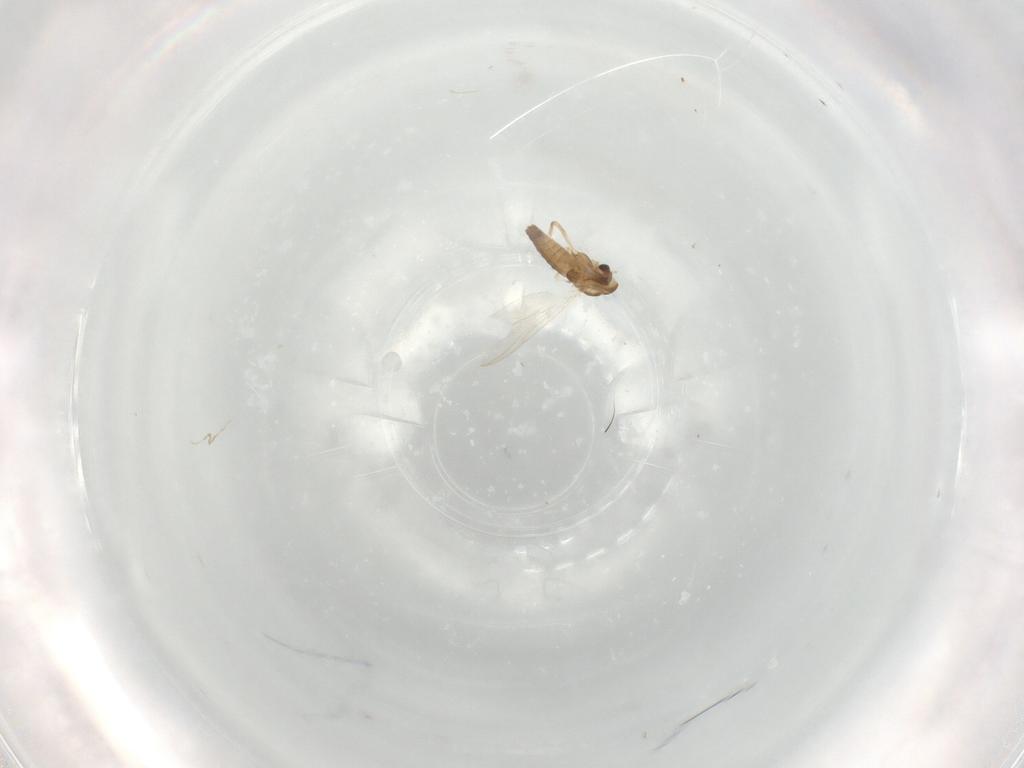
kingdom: Animalia
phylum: Arthropoda
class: Insecta
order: Diptera
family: Cecidomyiidae
